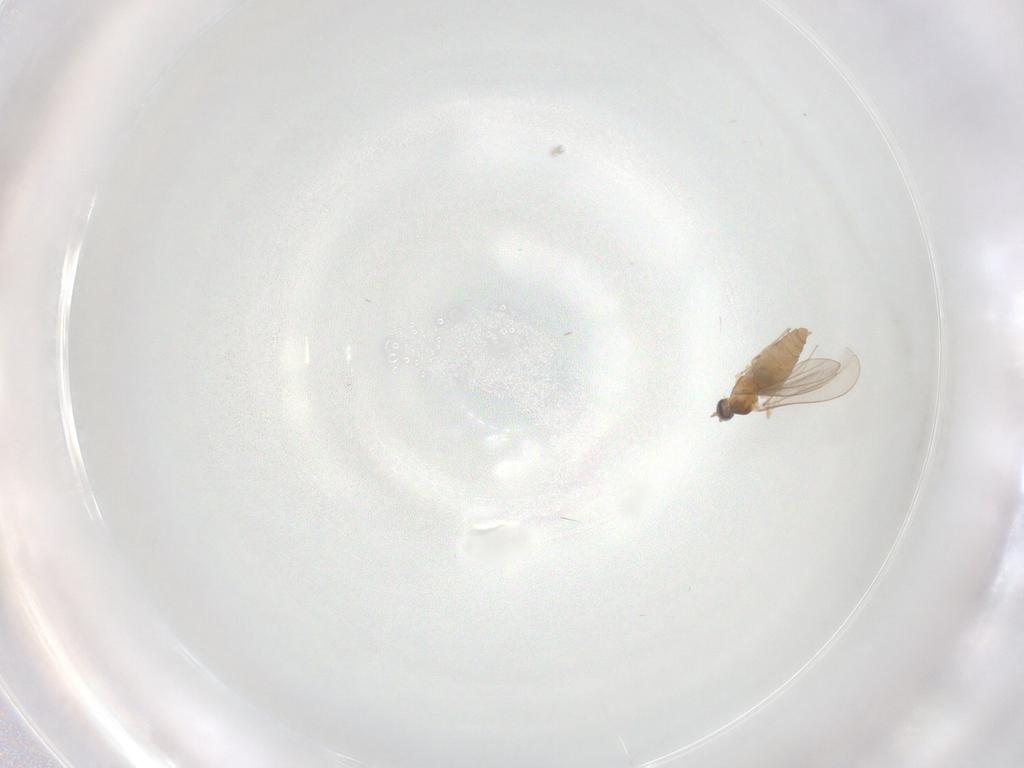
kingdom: Animalia
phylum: Arthropoda
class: Insecta
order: Diptera
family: Cecidomyiidae
